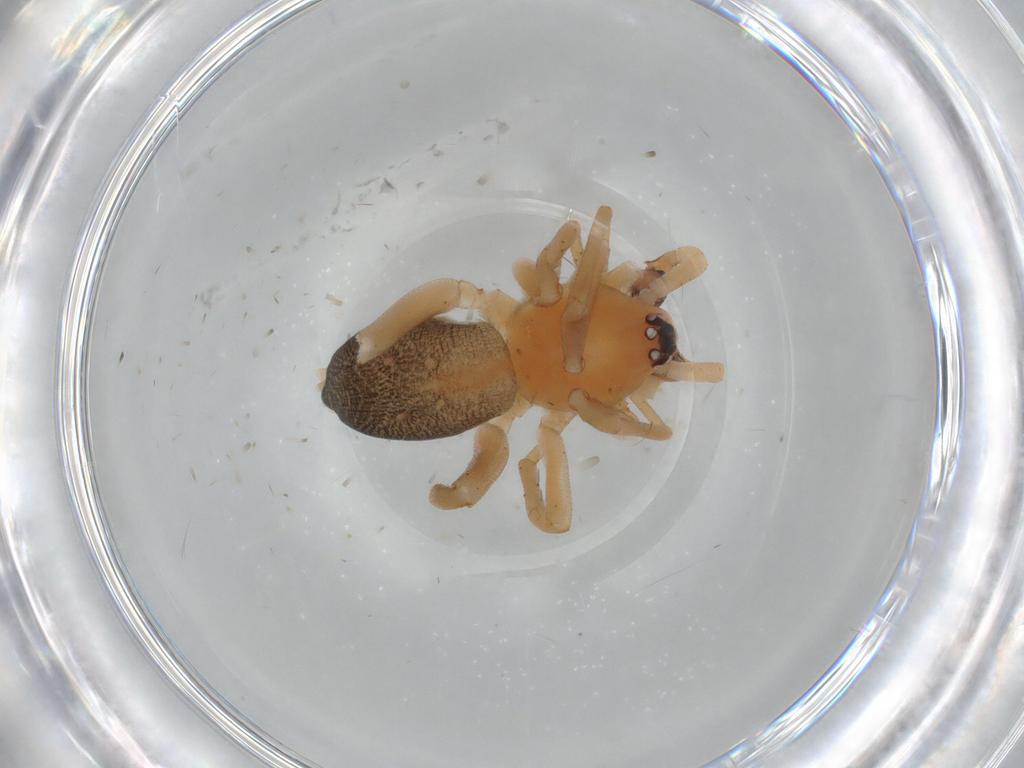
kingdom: Animalia
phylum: Arthropoda
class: Arachnida
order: Araneae
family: Corinnidae
